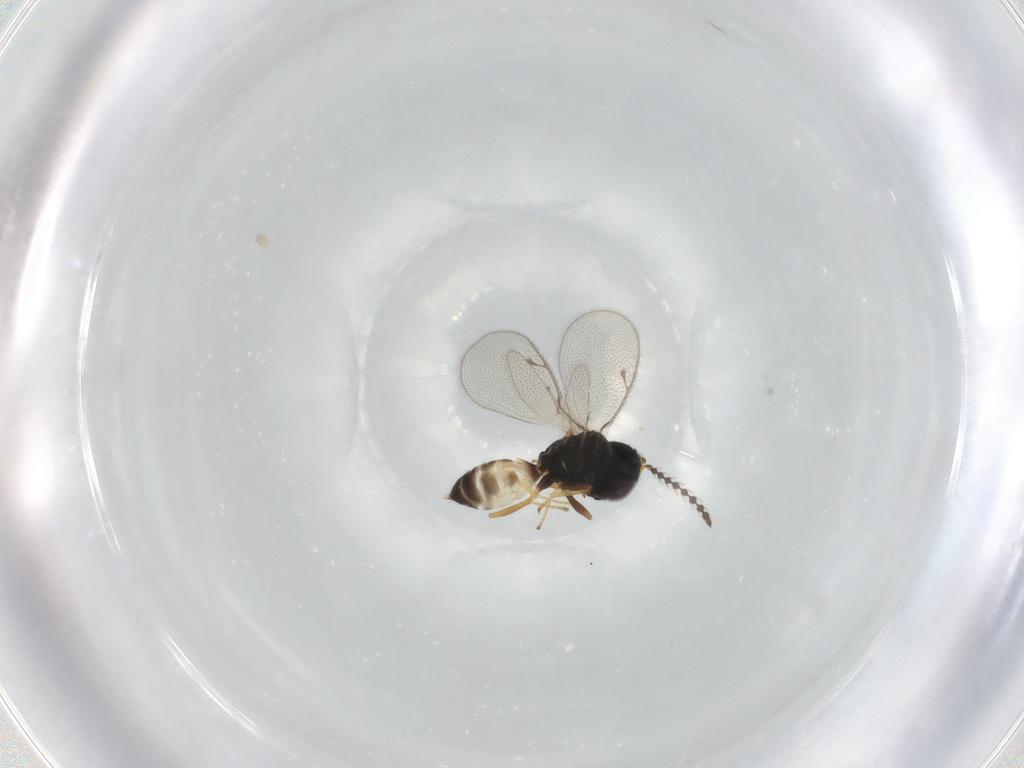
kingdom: Animalia
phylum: Arthropoda
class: Insecta
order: Hymenoptera
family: Pteromalidae
